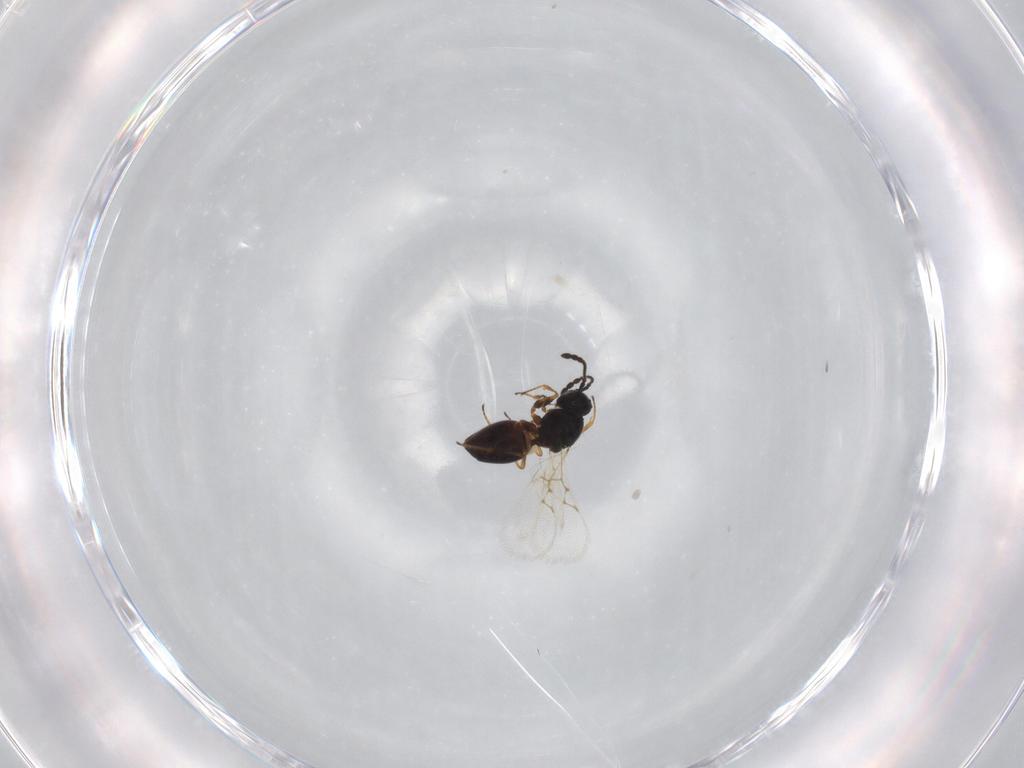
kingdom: Animalia
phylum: Arthropoda
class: Insecta
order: Hymenoptera
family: Figitidae
